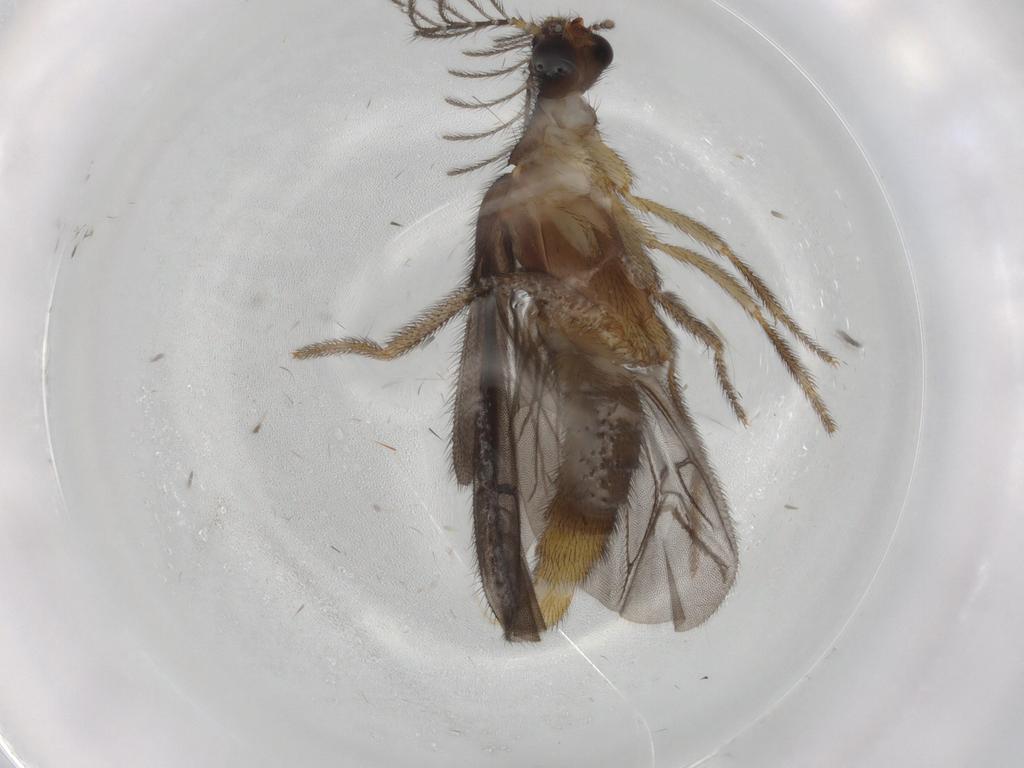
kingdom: Animalia
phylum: Arthropoda
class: Insecta
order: Coleoptera
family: Phengodidae
